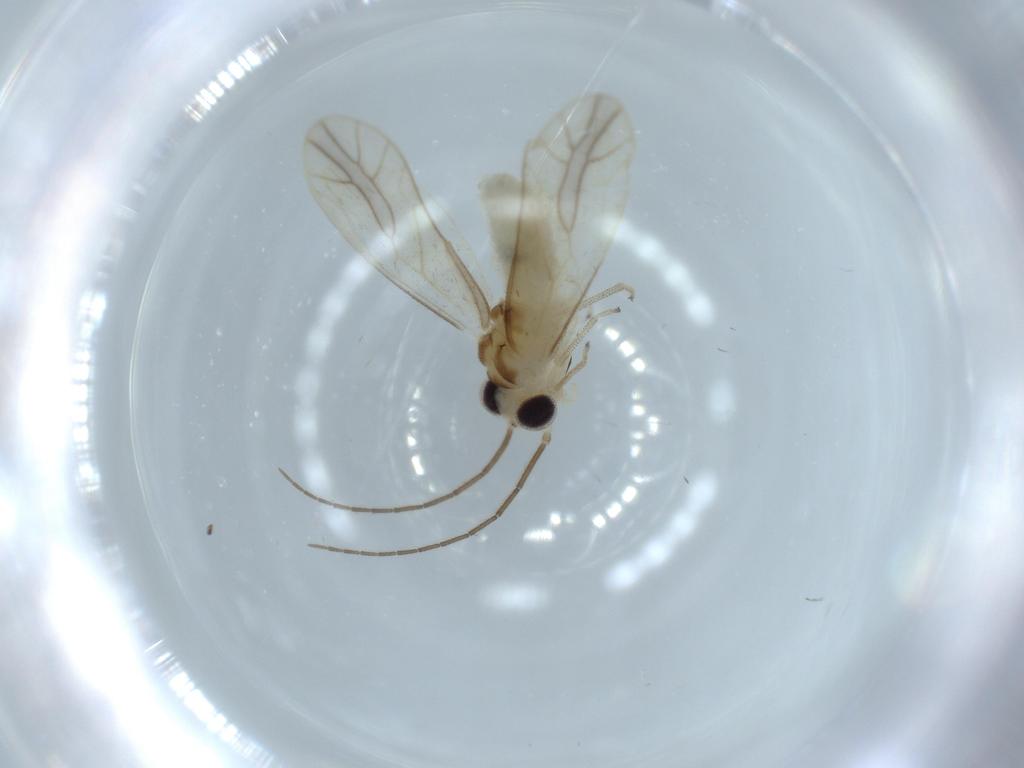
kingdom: Animalia
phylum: Arthropoda
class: Insecta
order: Psocodea
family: Caeciliusidae
